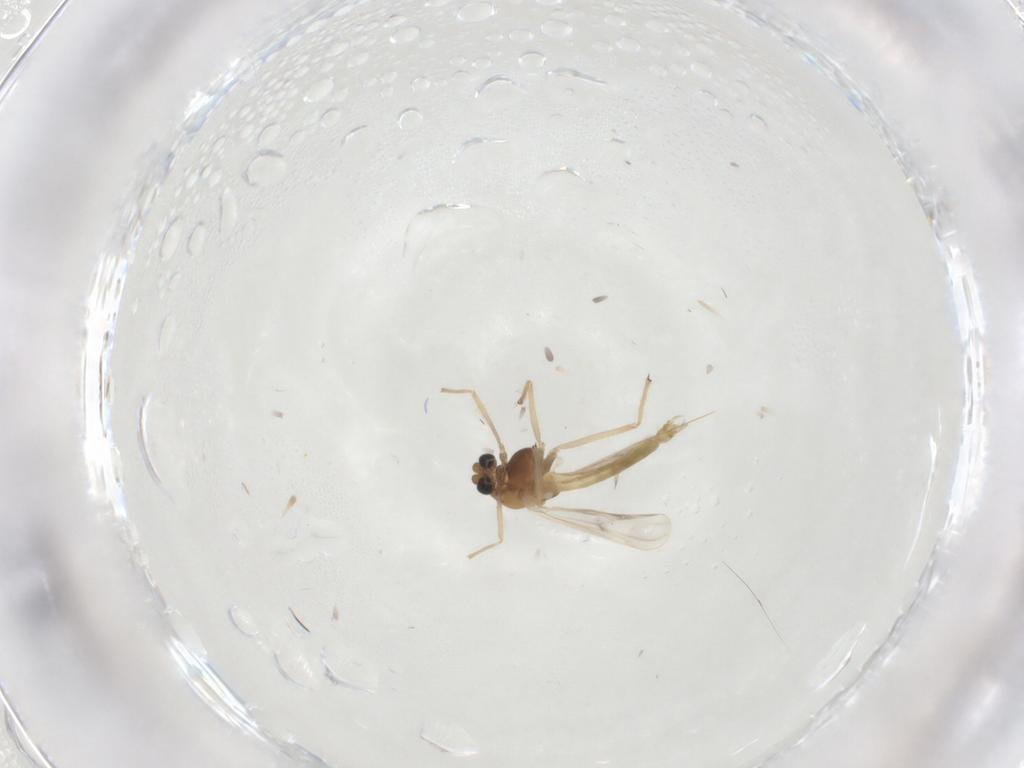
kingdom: Animalia
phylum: Arthropoda
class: Insecta
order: Diptera
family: Chironomidae
